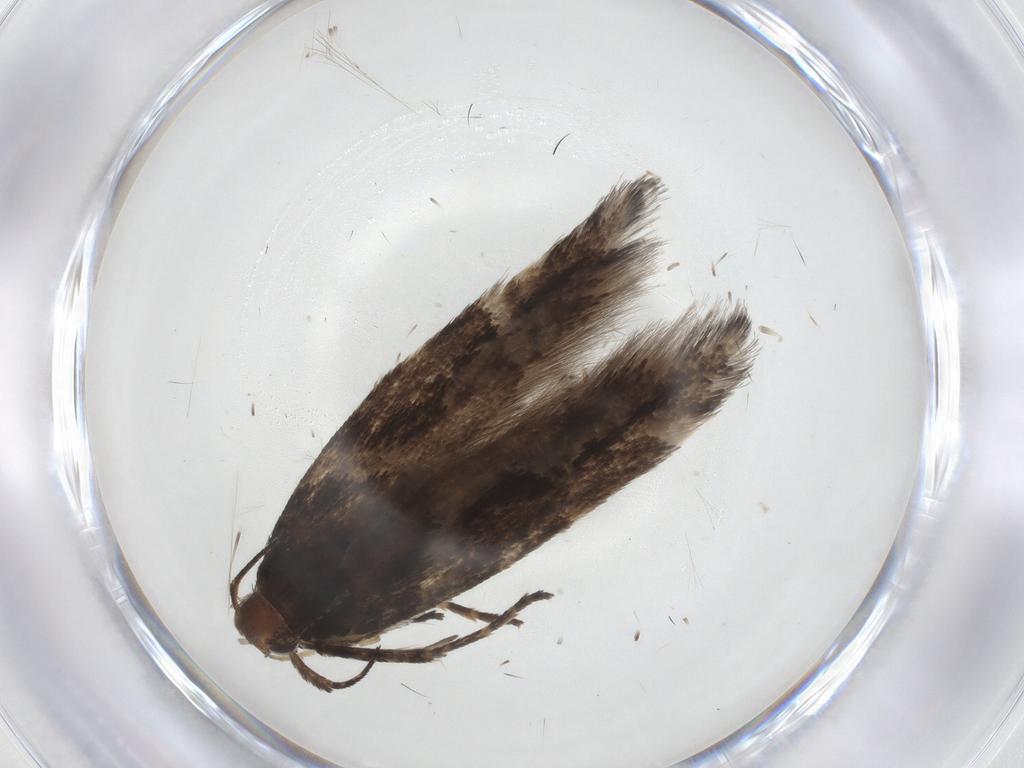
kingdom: Animalia
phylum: Arthropoda
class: Insecta
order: Lepidoptera
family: Gelechiidae
